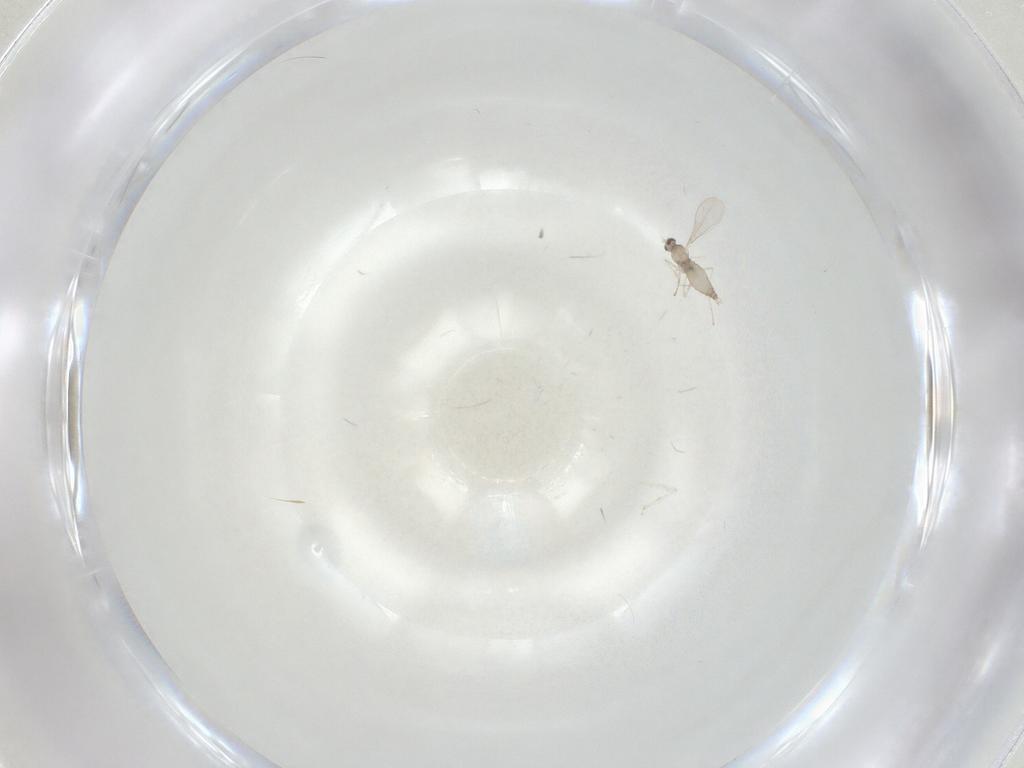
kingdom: Animalia
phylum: Arthropoda
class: Insecta
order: Diptera
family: Cecidomyiidae
